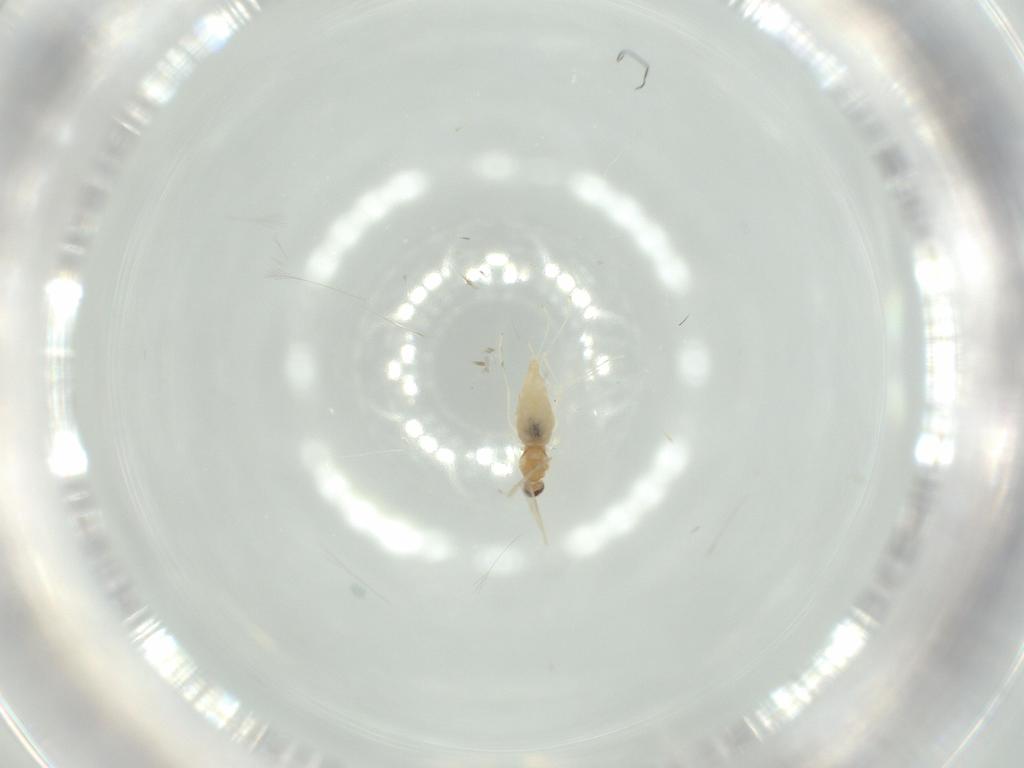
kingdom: Animalia
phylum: Arthropoda
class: Insecta
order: Diptera
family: Cecidomyiidae
